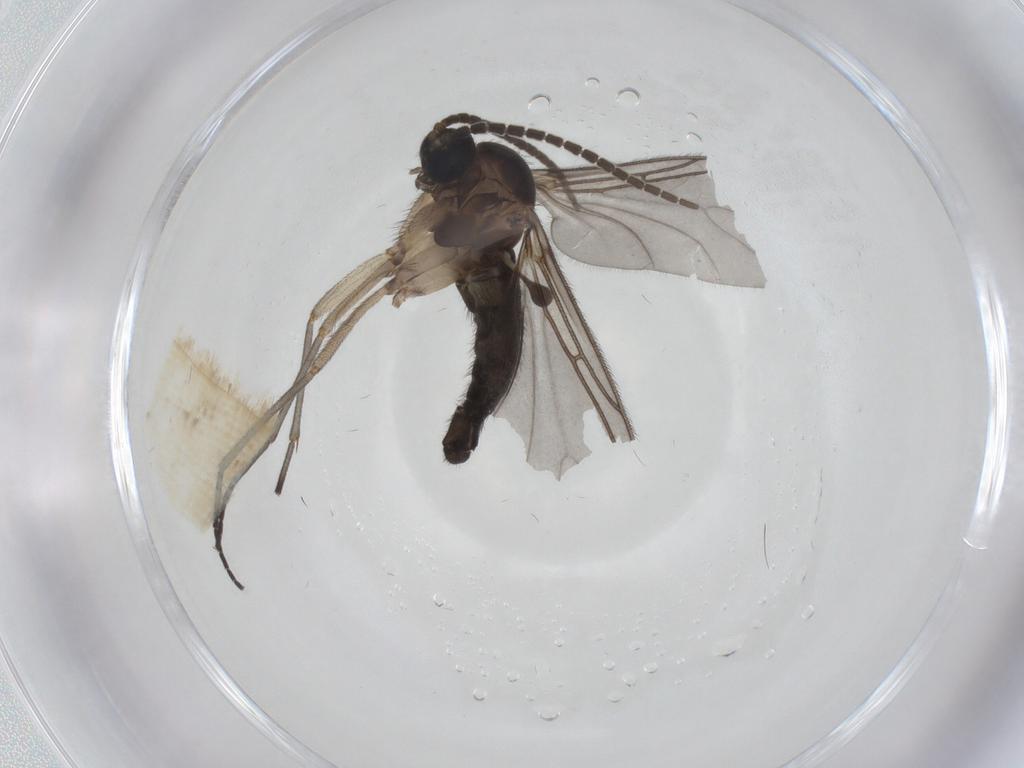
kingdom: Animalia
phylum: Arthropoda
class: Insecta
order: Diptera
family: Sciaridae
